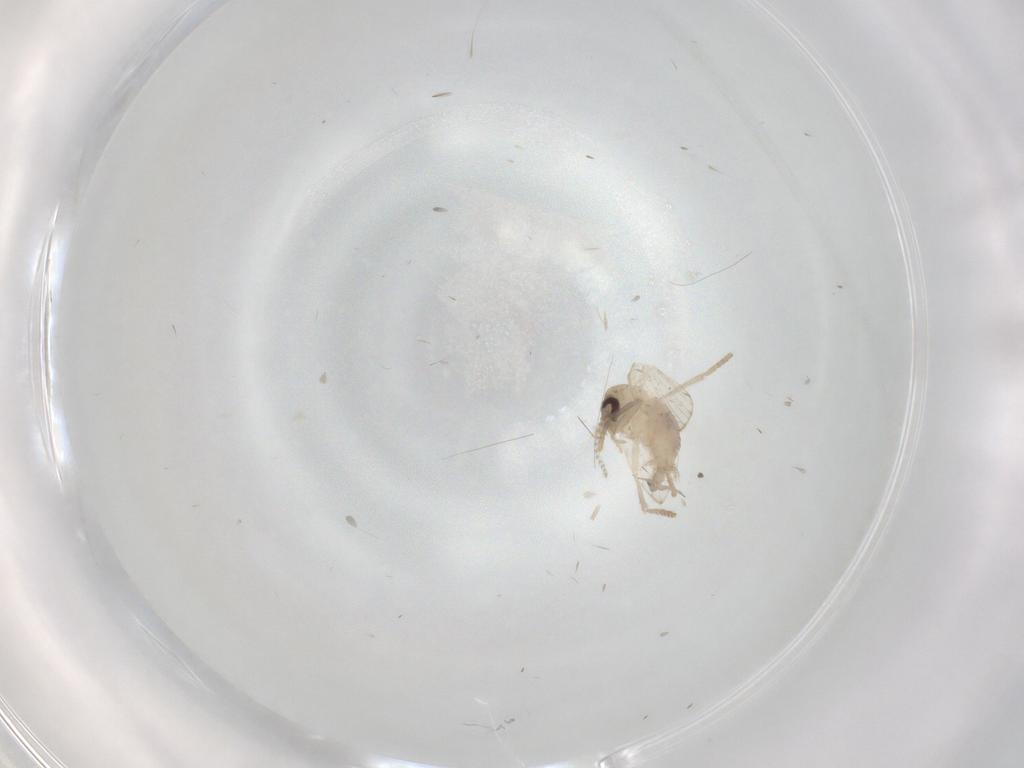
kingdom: Animalia
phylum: Arthropoda
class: Insecta
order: Diptera
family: Psychodidae
